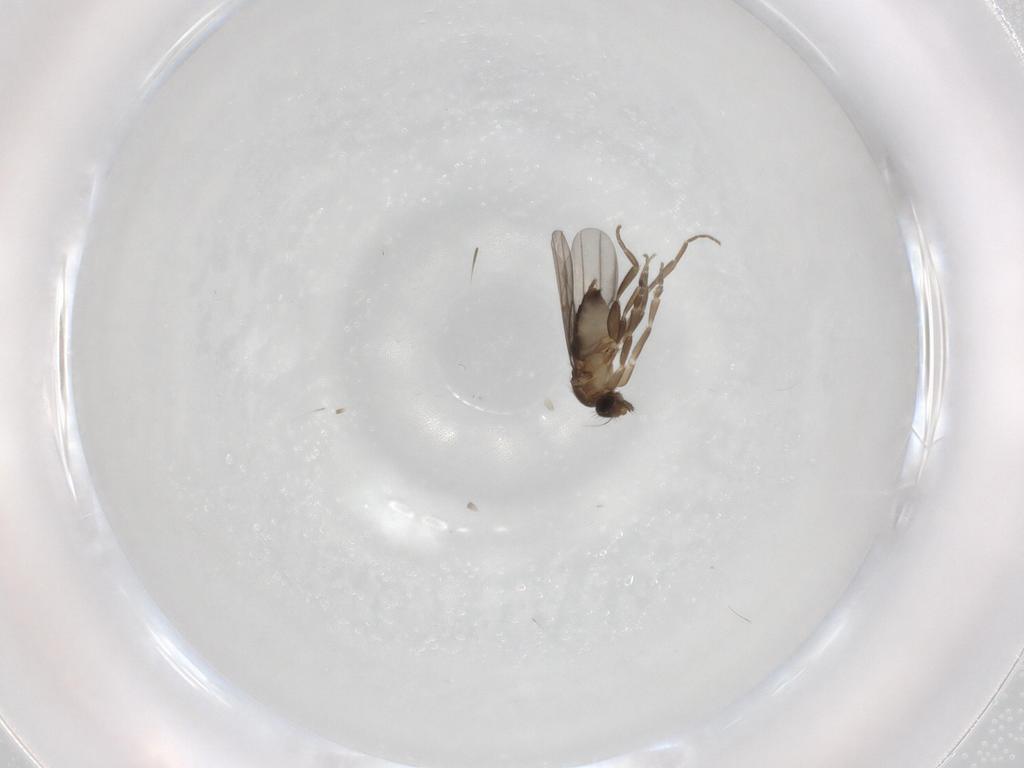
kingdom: Animalia
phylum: Arthropoda
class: Insecta
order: Diptera
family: Phoridae
